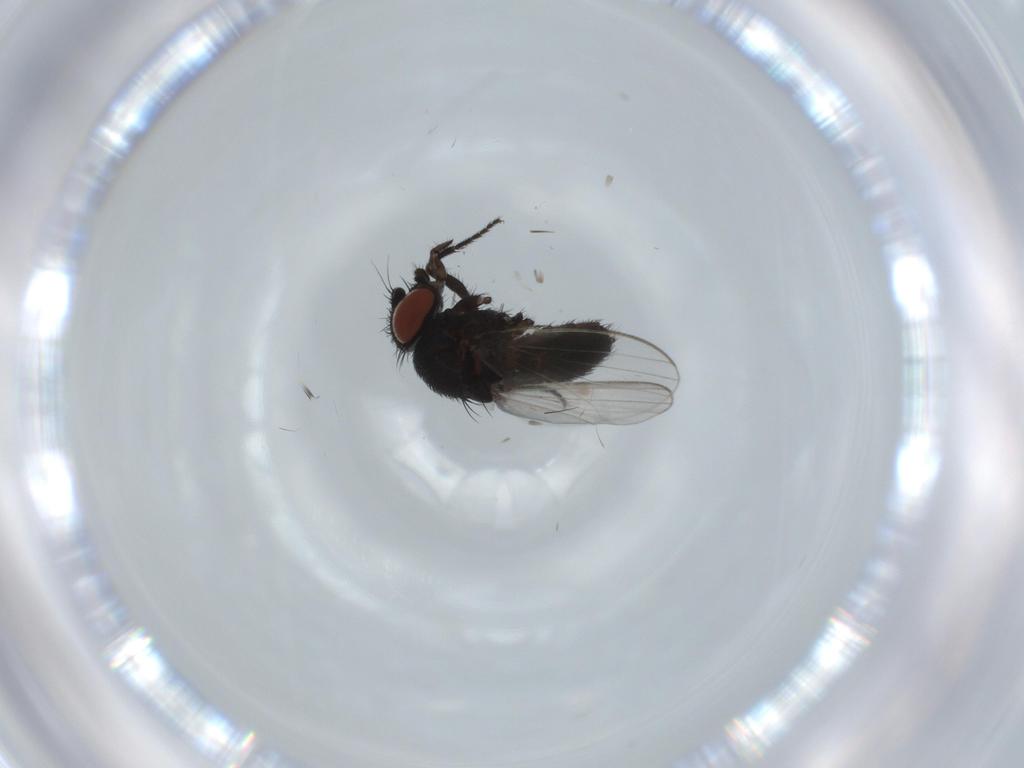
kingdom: Animalia
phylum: Arthropoda
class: Insecta
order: Diptera
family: Milichiidae
